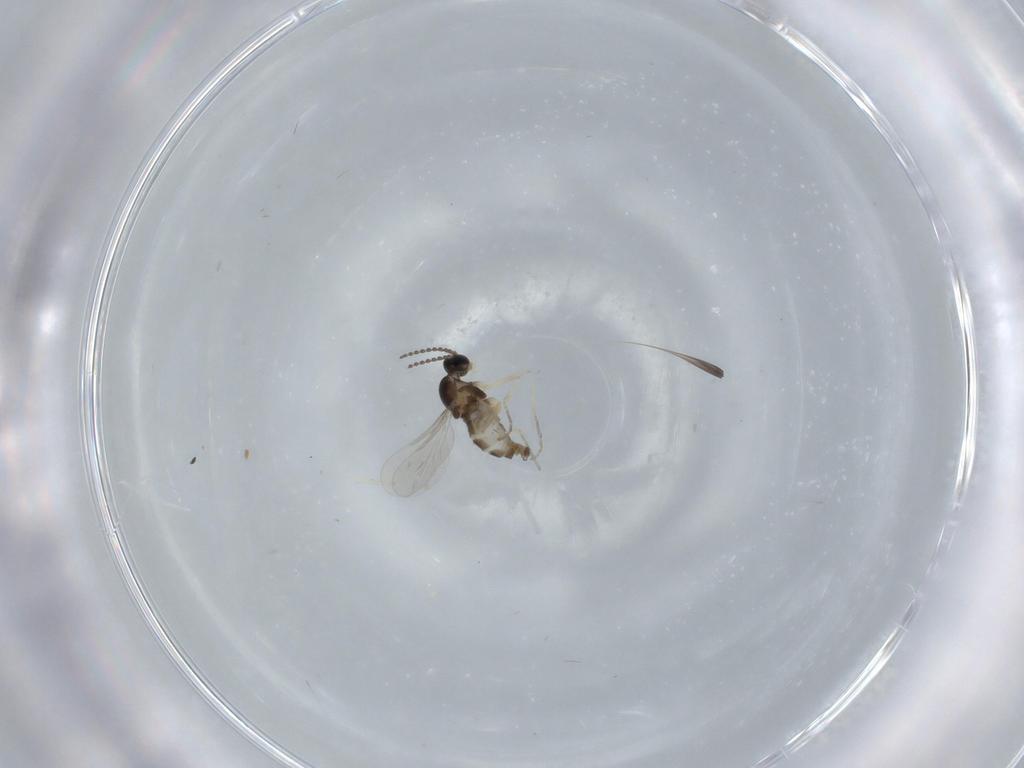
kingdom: Animalia
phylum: Arthropoda
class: Insecta
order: Diptera
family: Cecidomyiidae
